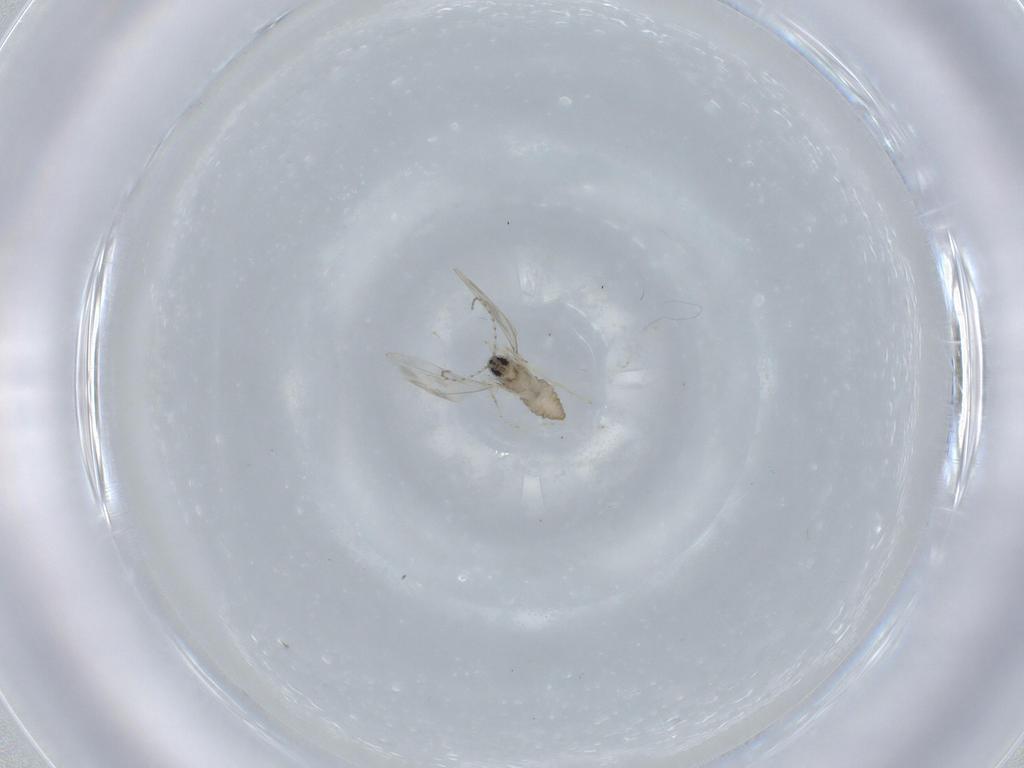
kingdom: Animalia
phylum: Arthropoda
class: Insecta
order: Diptera
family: Chironomidae
